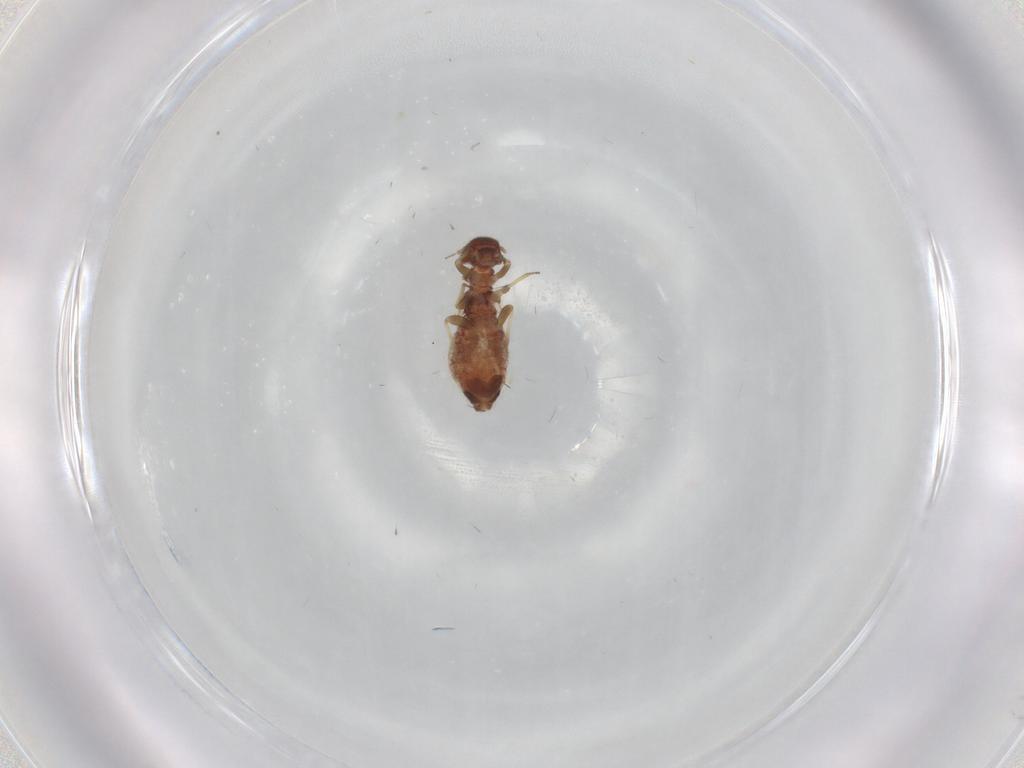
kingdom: Animalia
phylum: Arthropoda
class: Insecta
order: Psocodea
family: Archipsocidae
